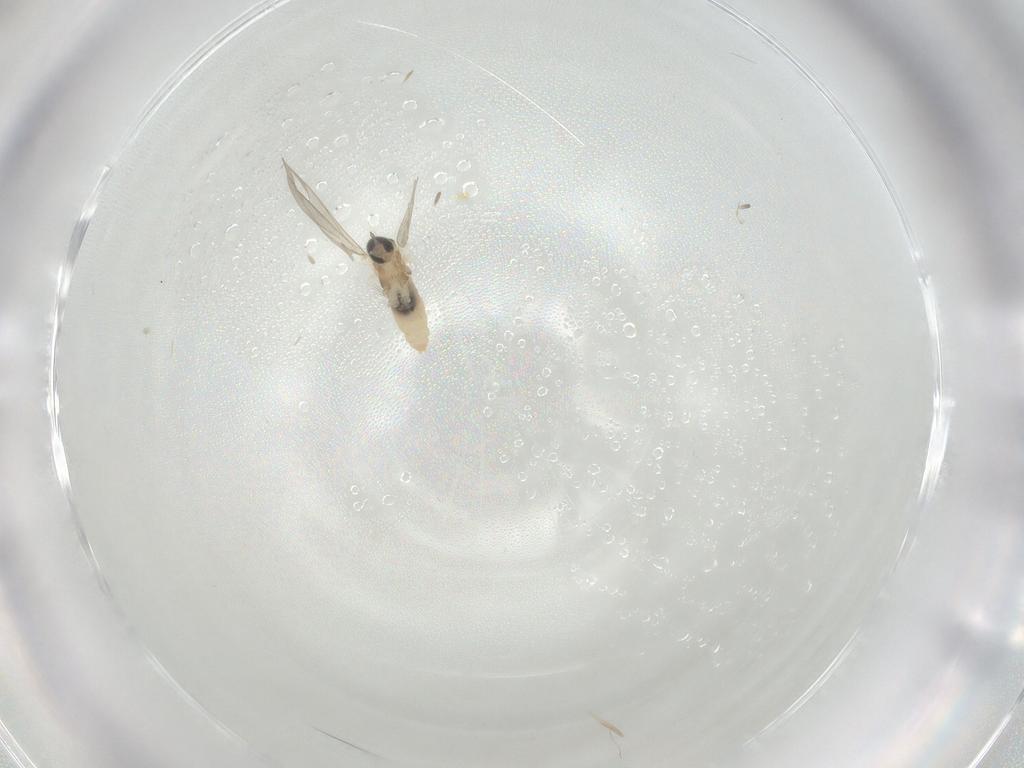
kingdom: Animalia
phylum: Arthropoda
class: Insecta
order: Diptera
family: Cecidomyiidae
